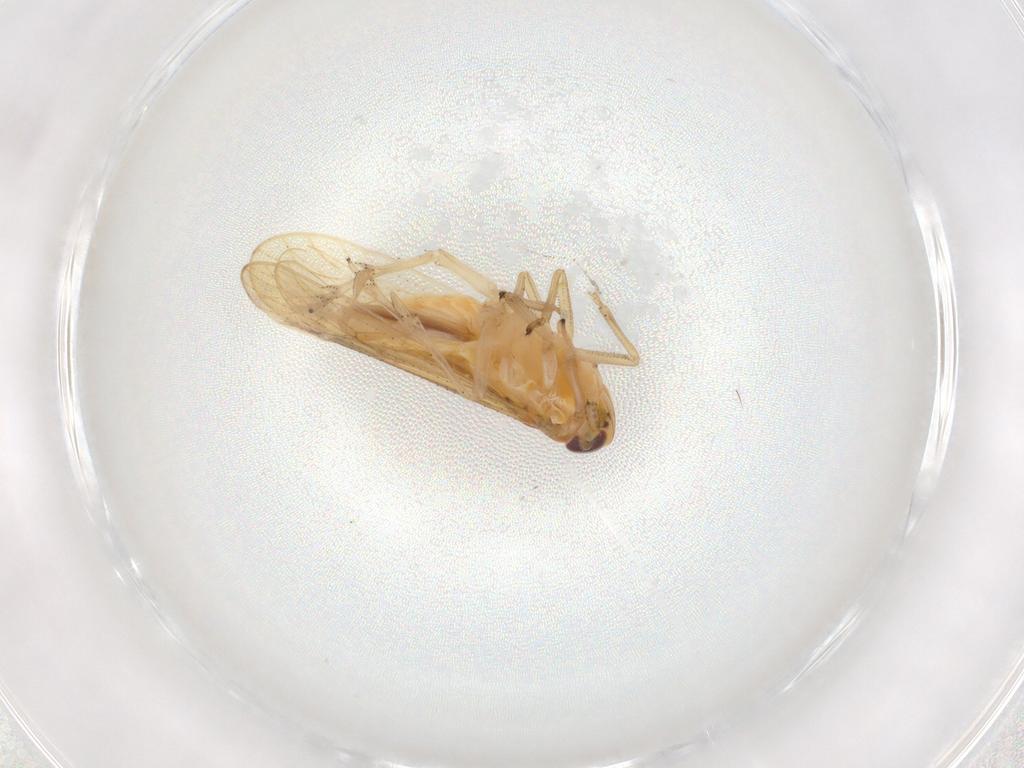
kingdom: Animalia
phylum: Arthropoda
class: Insecta
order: Hemiptera
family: Delphacidae
